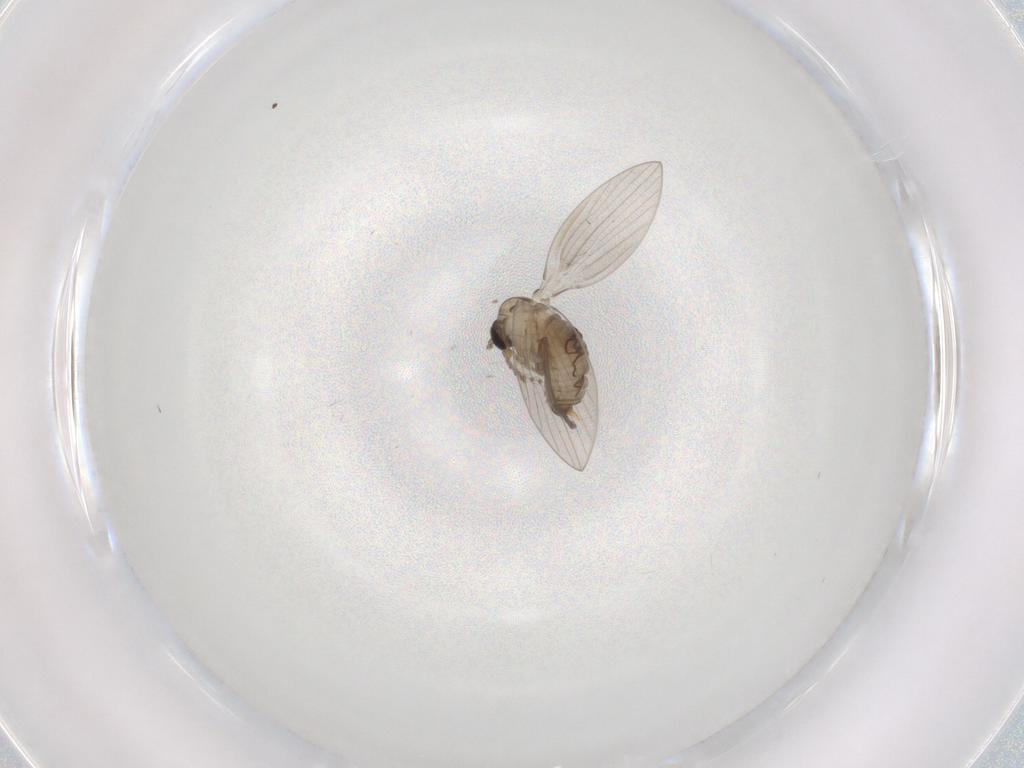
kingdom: Animalia
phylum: Arthropoda
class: Insecta
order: Diptera
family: Psychodidae
